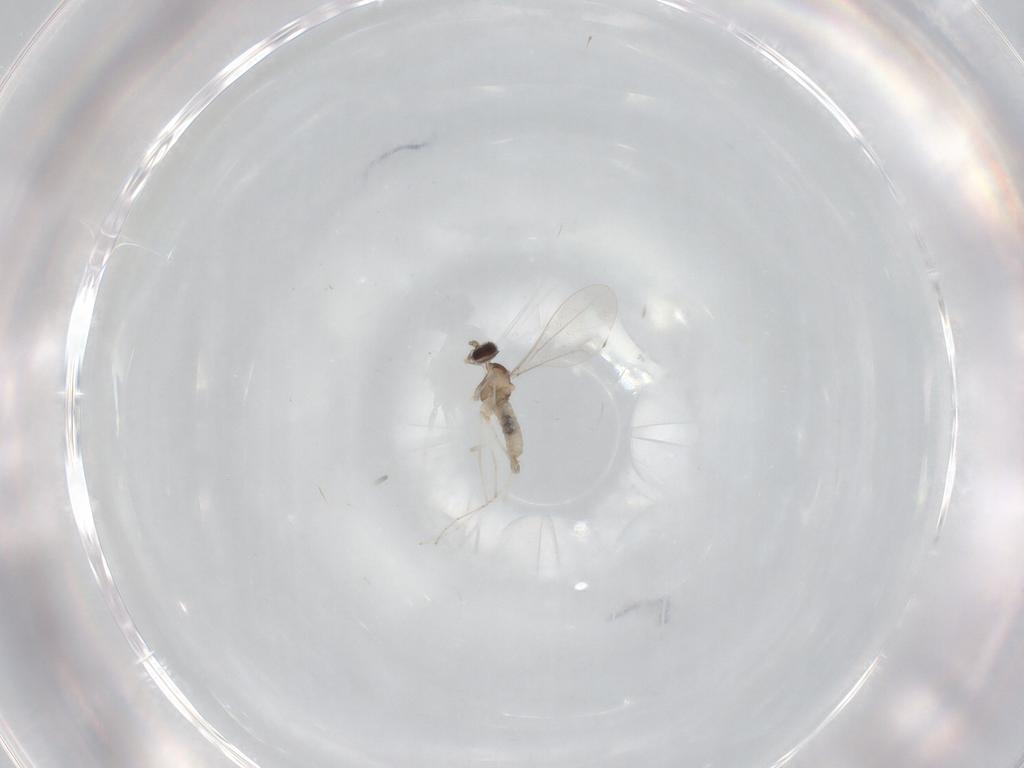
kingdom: Animalia
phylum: Arthropoda
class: Insecta
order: Diptera
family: Cecidomyiidae
